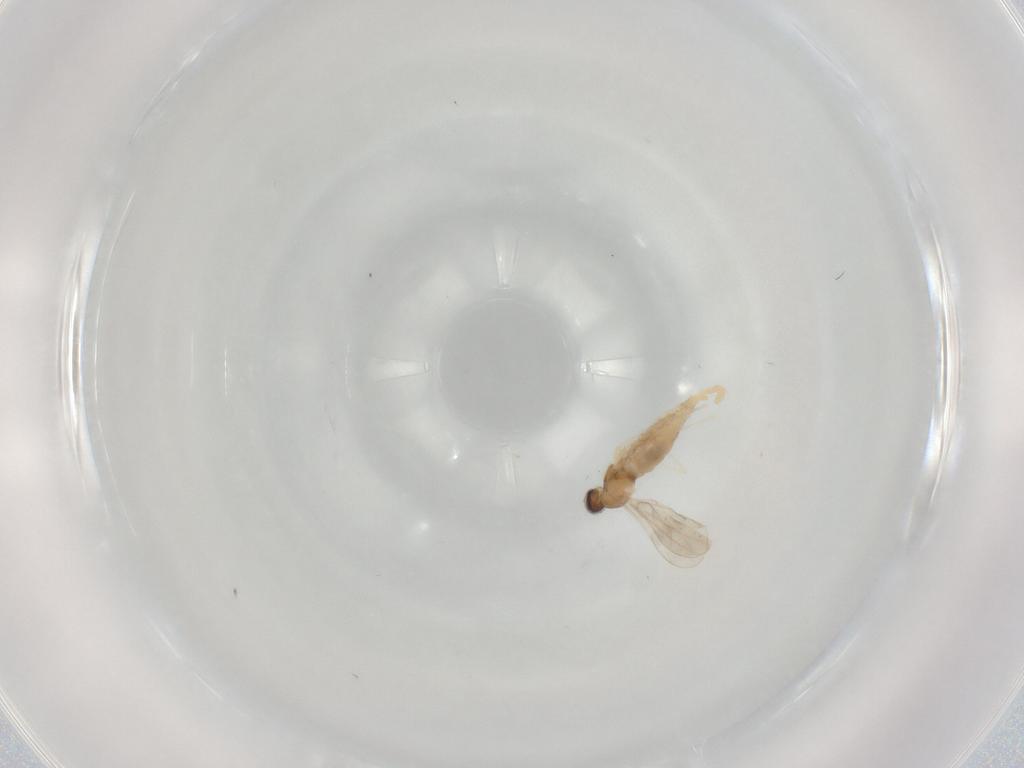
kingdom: Animalia
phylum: Arthropoda
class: Insecta
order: Diptera
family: Cecidomyiidae
